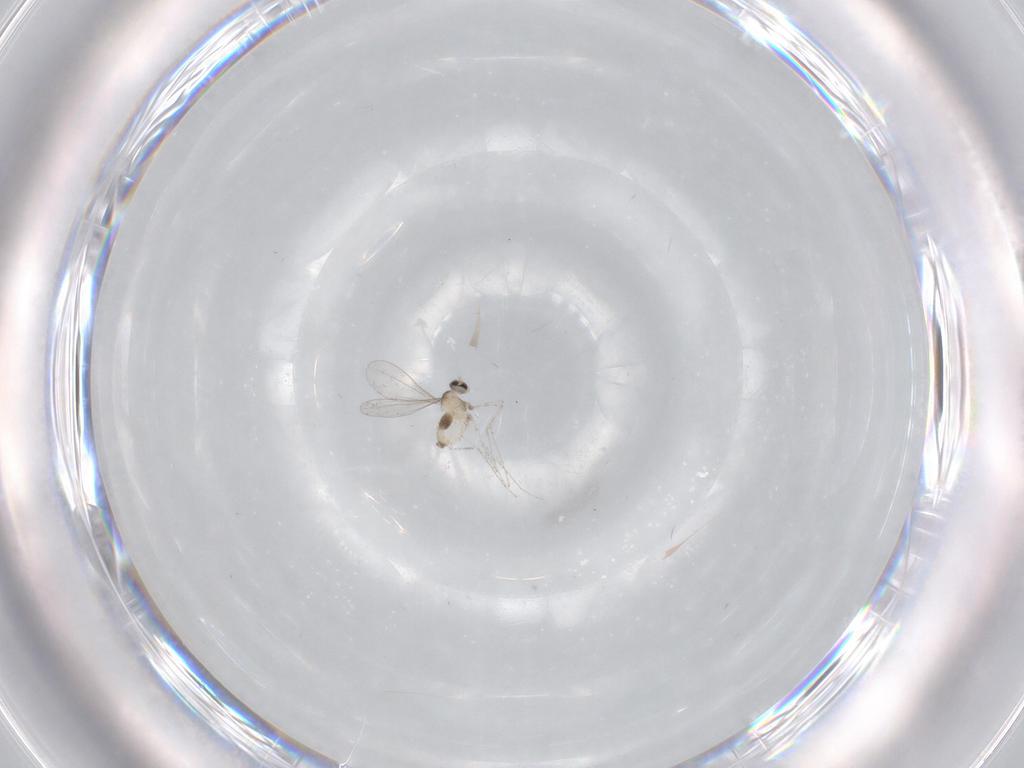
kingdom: Animalia
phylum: Arthropoda
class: Insecta
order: Diptera
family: Cecidomyiidae
